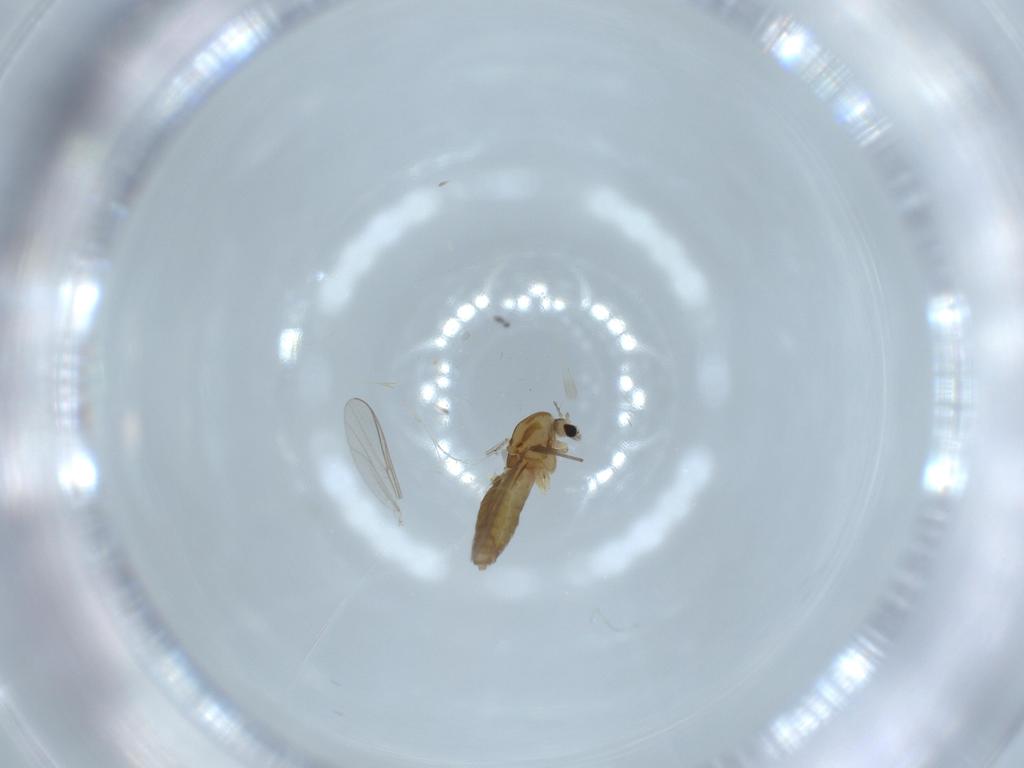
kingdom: Animalia
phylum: Arthropoda
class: Insecta
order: Diptera
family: Chironomidae
